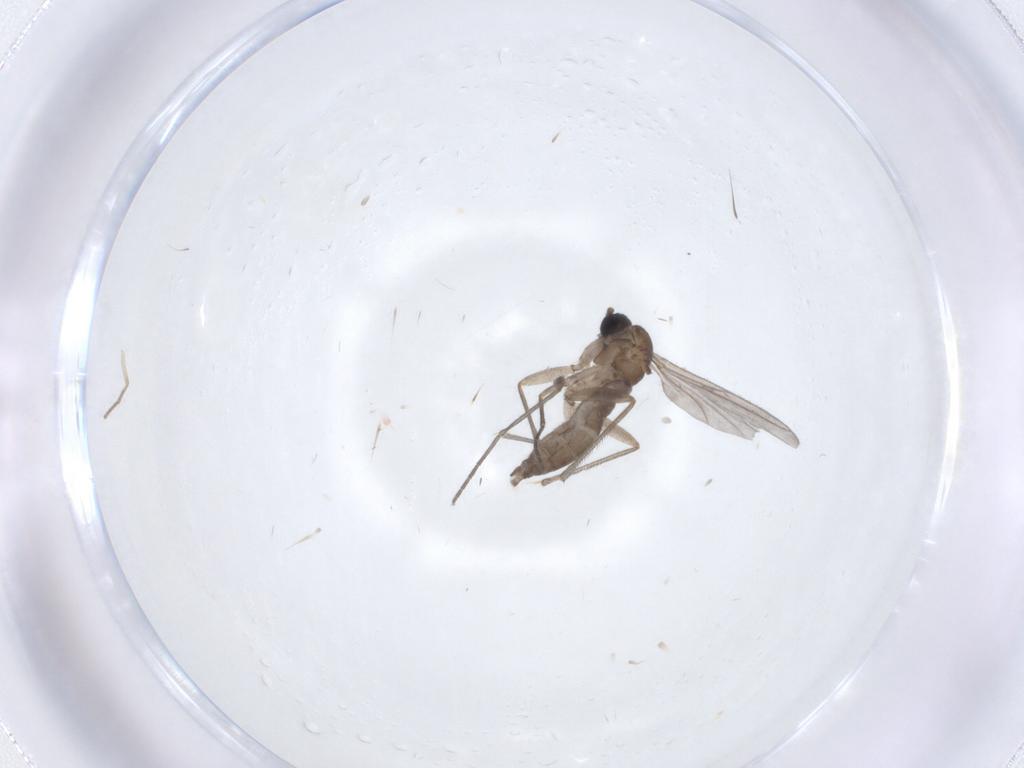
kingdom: Animalia
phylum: Arthropoda
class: Insecta
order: Diptera
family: Sciaridae
